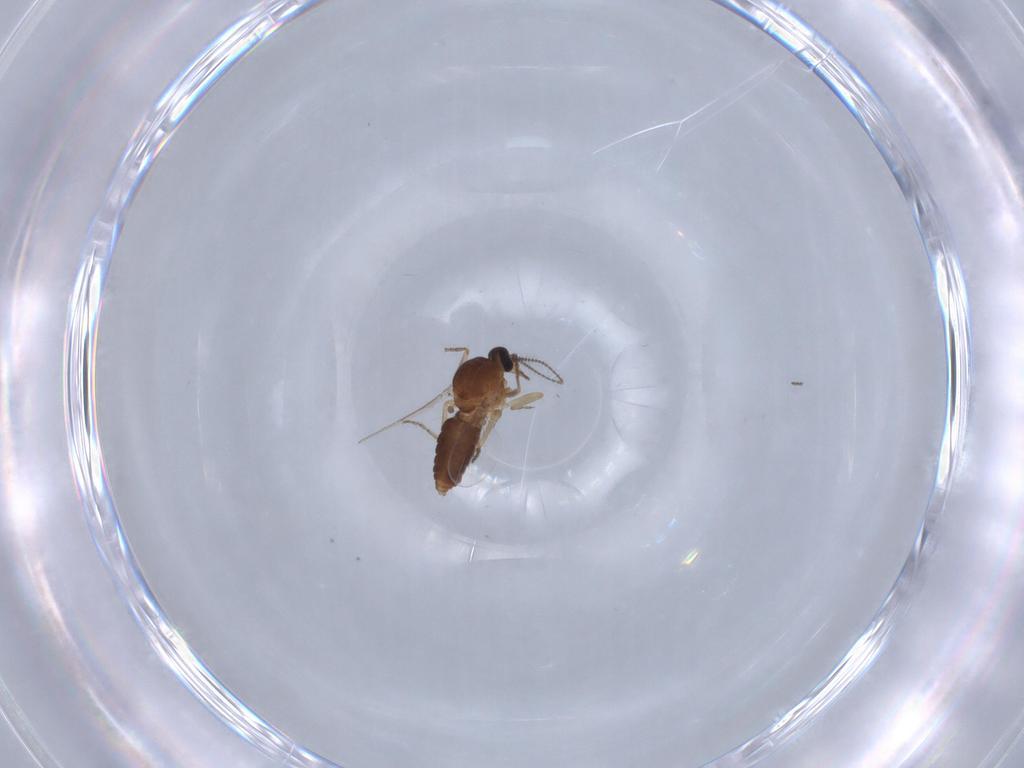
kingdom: Animalia
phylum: Arthropoda
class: Insecta
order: Diptera
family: Ceratopogonidae
